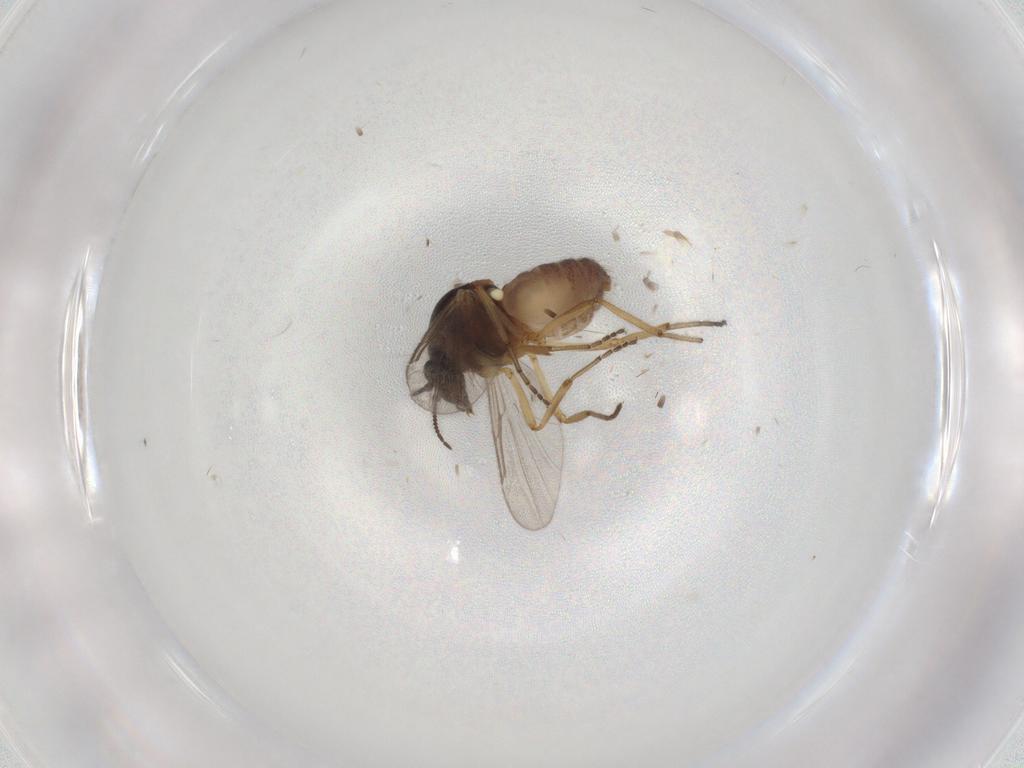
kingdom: Animalia
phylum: Arthropoda
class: Insecta
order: Diptera
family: Ceratopogonidae
